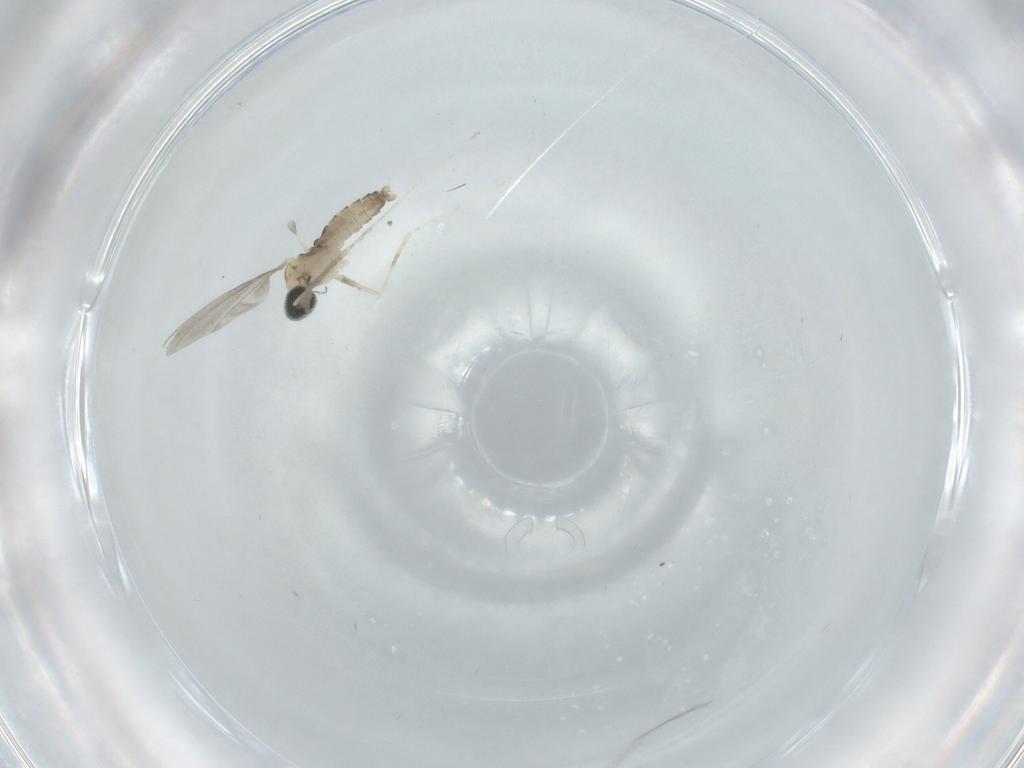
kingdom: Animalia
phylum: Arthropoda
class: Insecta
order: Diptera
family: Cecidomyiidae
